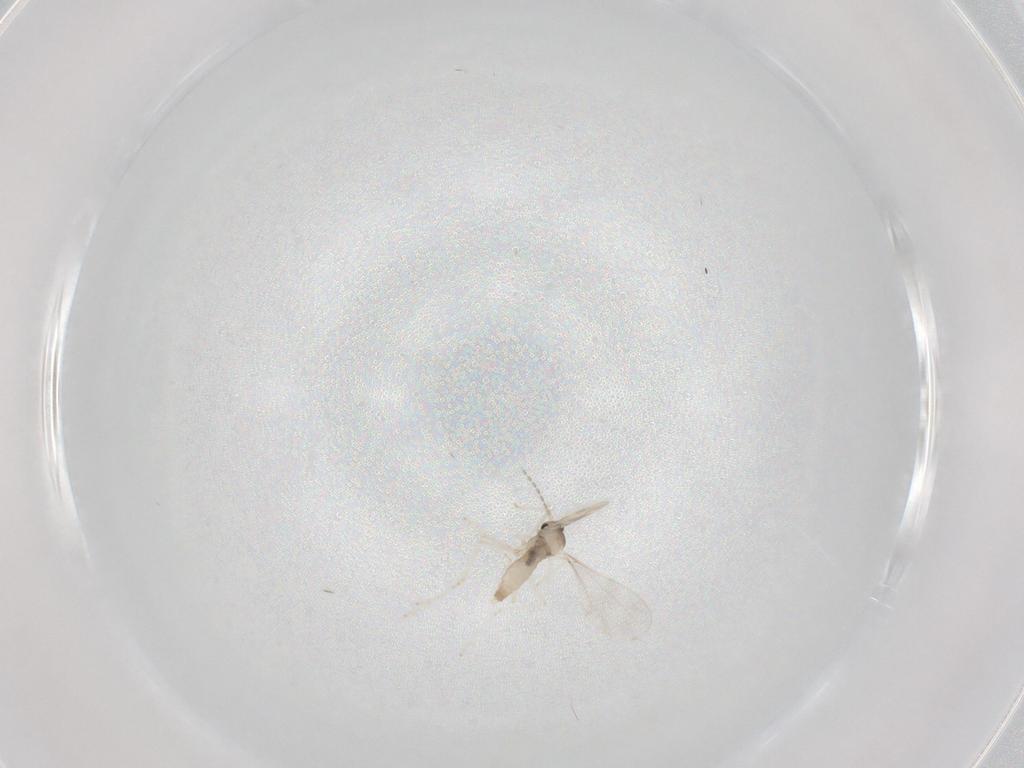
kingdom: Animalia
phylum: Arthropoda
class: Insecta
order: Diptera
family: Cecidomyiidae
